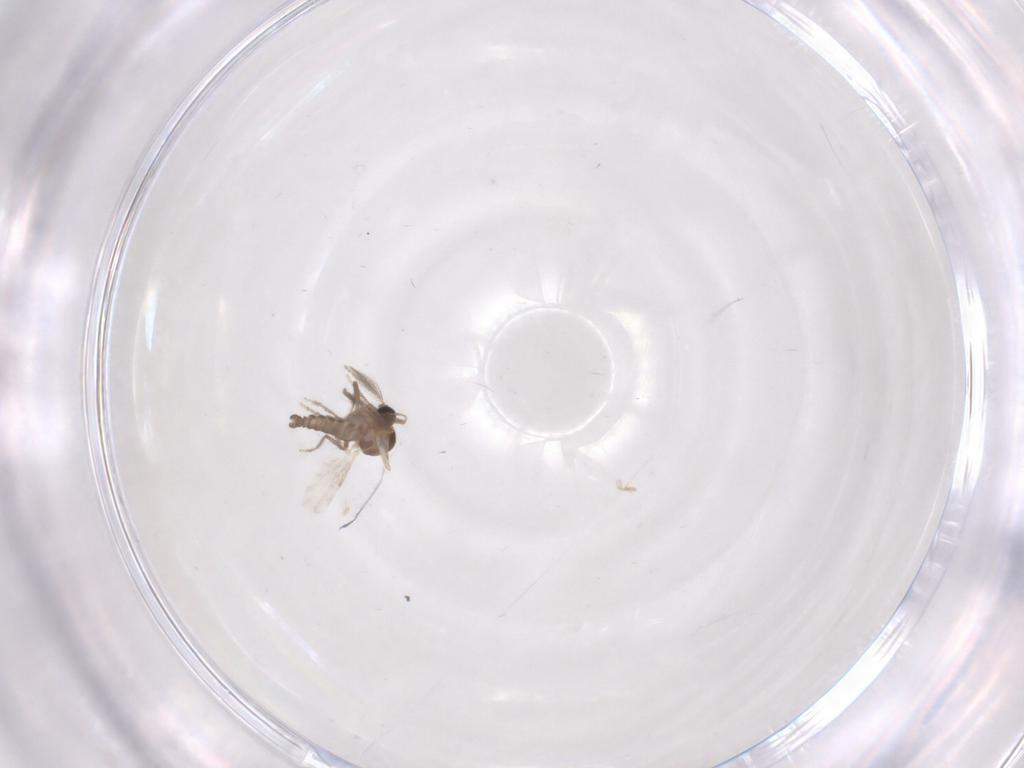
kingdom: Animalia
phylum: Arthropoda
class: Insecta
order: Diptera
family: Ceratopogonidae
